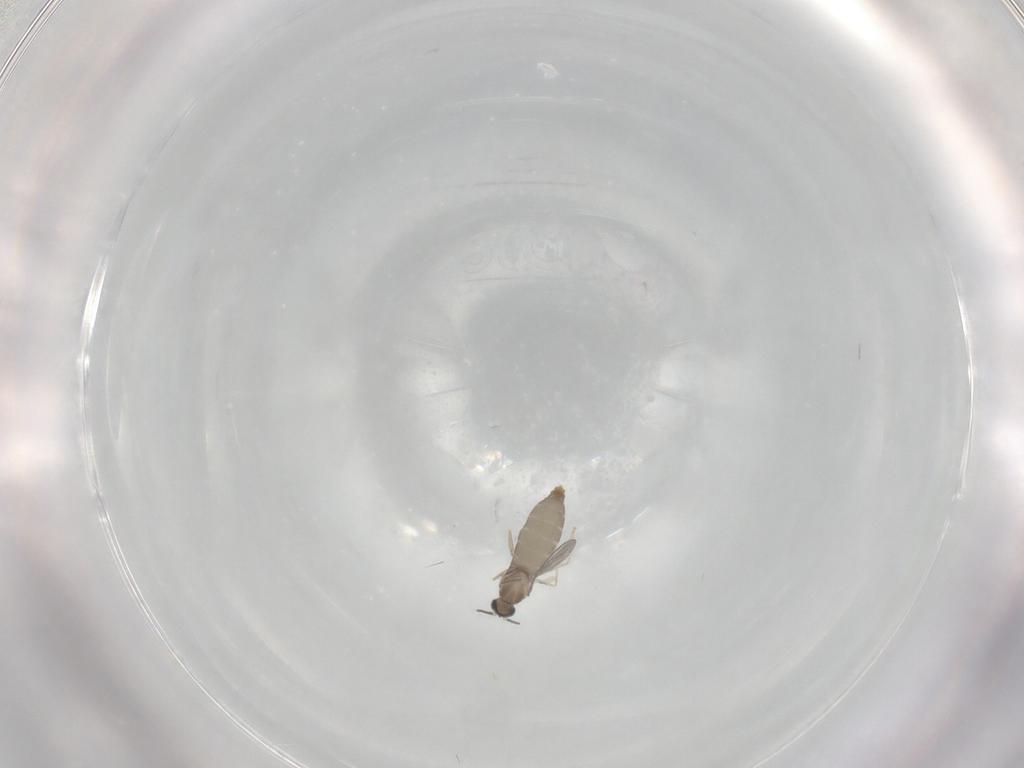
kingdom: Animalia
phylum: Arthropoda
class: Insecta
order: Diptera
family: Cecidomyiidae
